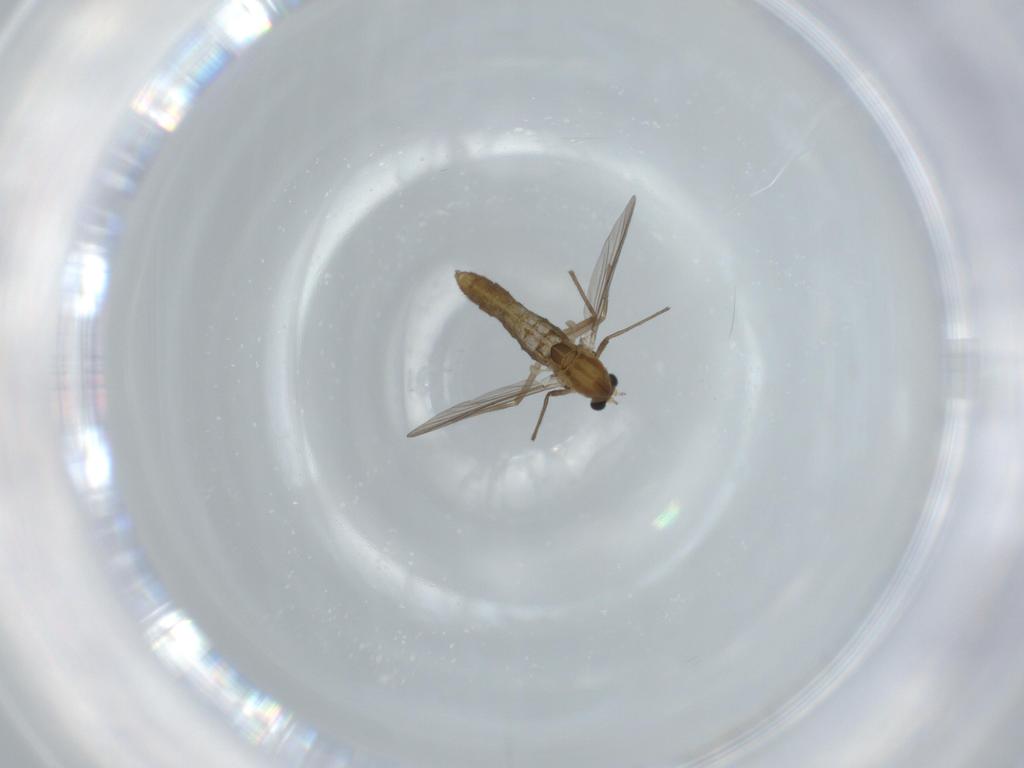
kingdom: Animalia
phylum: Arthropoda
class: Insecta
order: Diptera
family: Chironomidae
